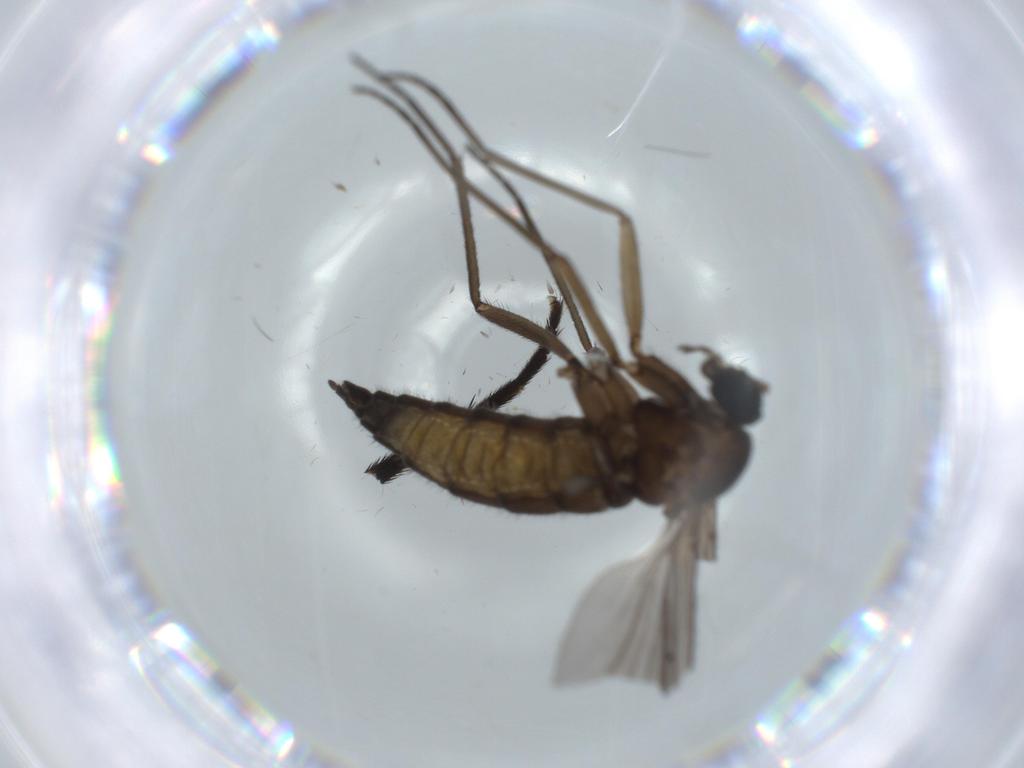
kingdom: Animalia
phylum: Arthropoda
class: Insecta
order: Diptera
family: Sciaridae
